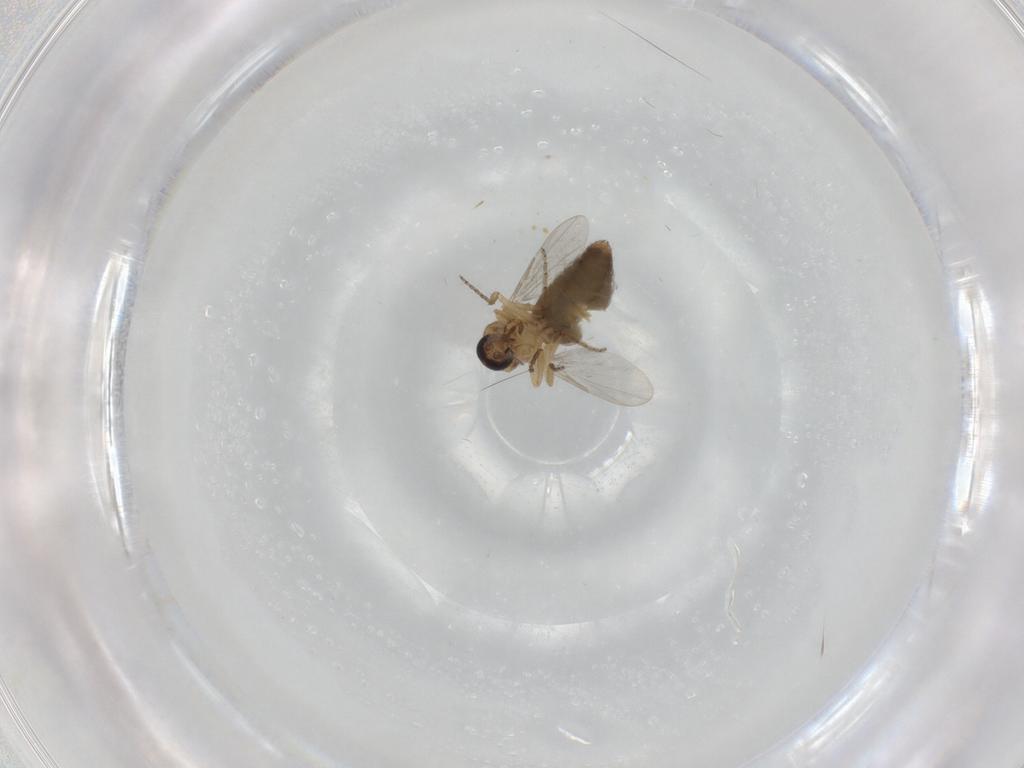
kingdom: Animalia
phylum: Arthropoda
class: Insecta
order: Diptera
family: Ceratopogonidae
